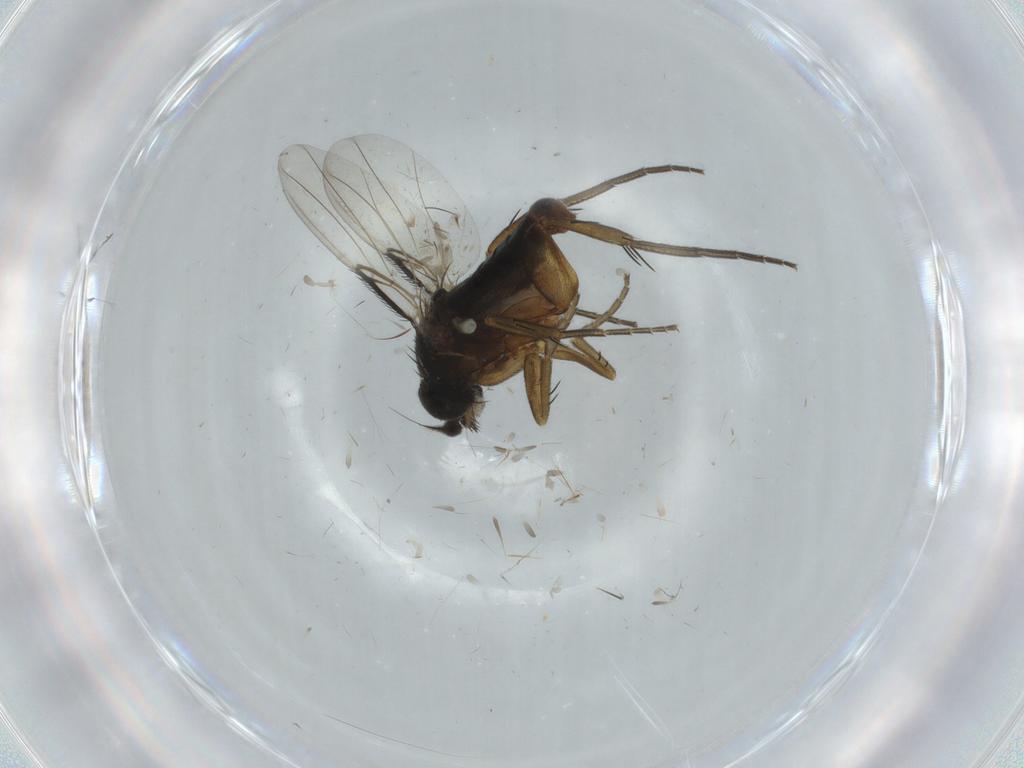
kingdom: Animalia
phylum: Arthropoda
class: Insecta
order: Diptera
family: Phoridae
